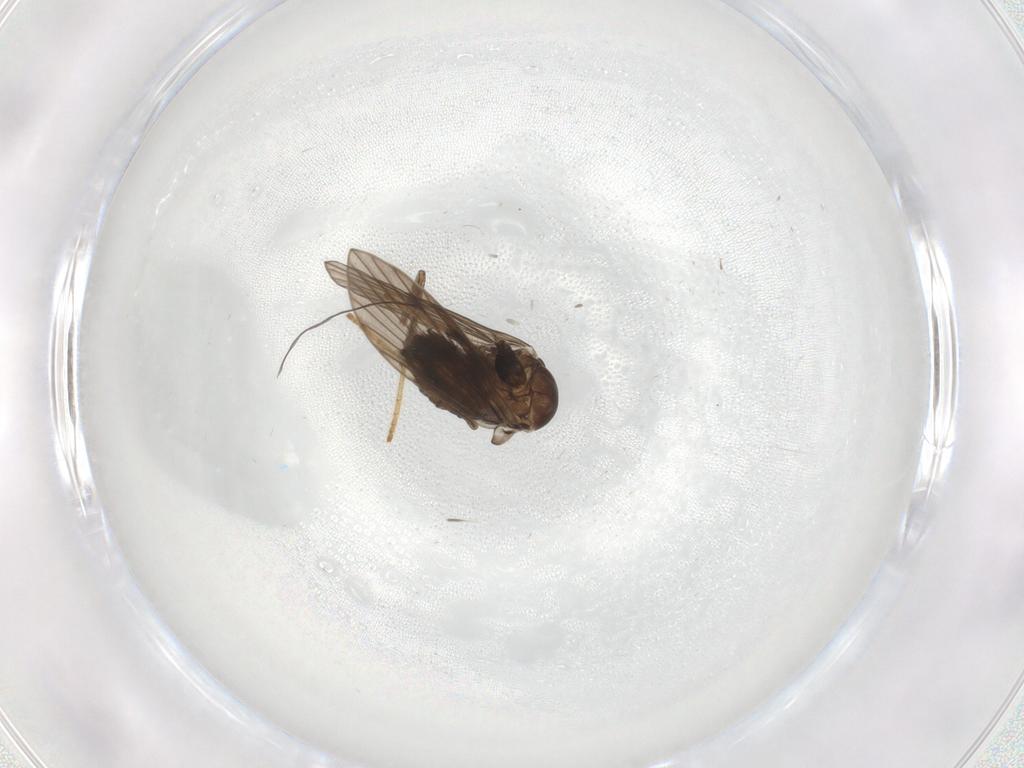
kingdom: Animalia
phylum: Arthropoda
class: Insecta
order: Diptera
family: Psychodidae
